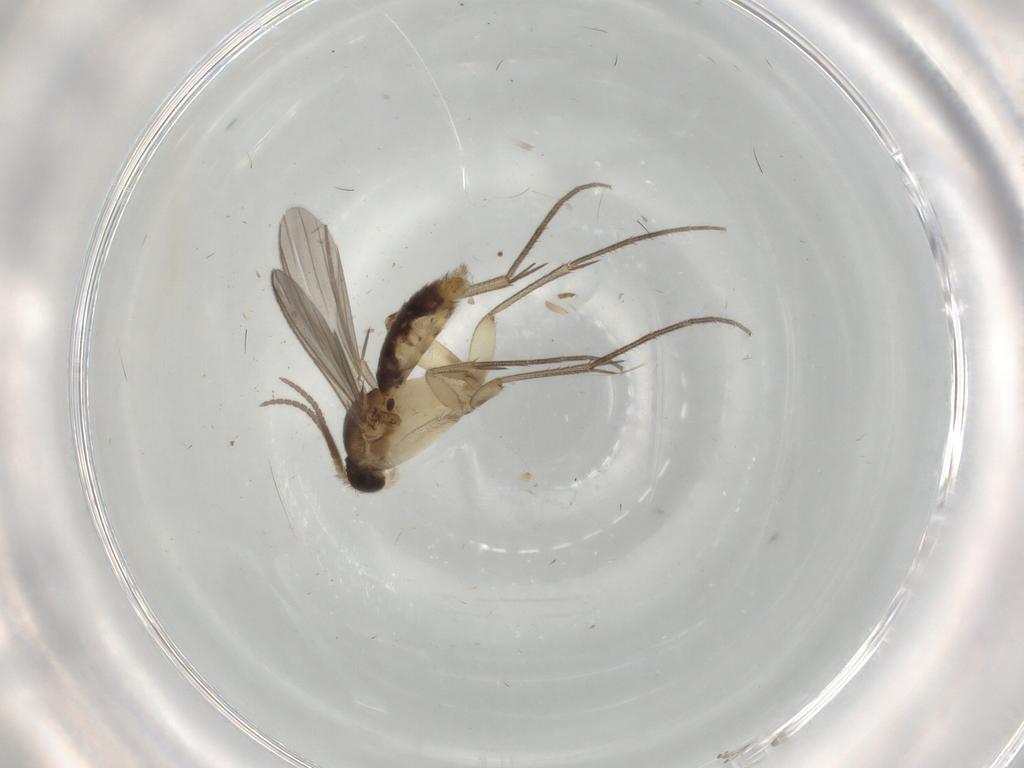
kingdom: Animalia
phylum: Arthropoda
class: Insecta
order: Diptera
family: Mycetophilidae
